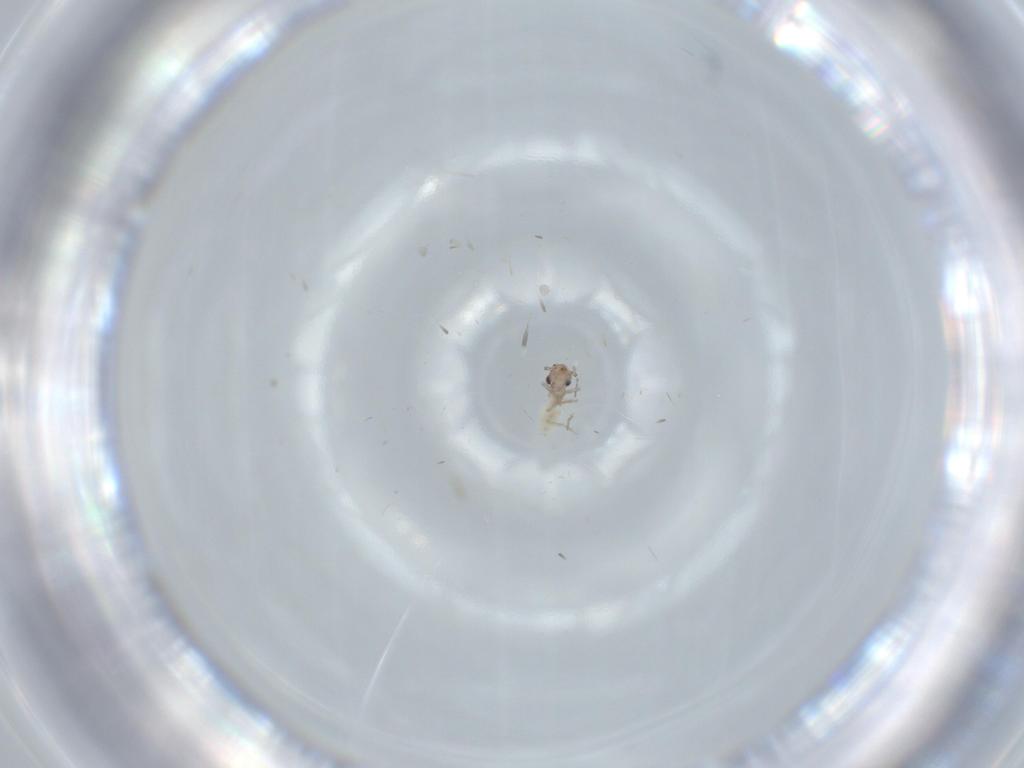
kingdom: Animalia
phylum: Arthropoda
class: Insecta
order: Psocodea
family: Lepidopsocidae
